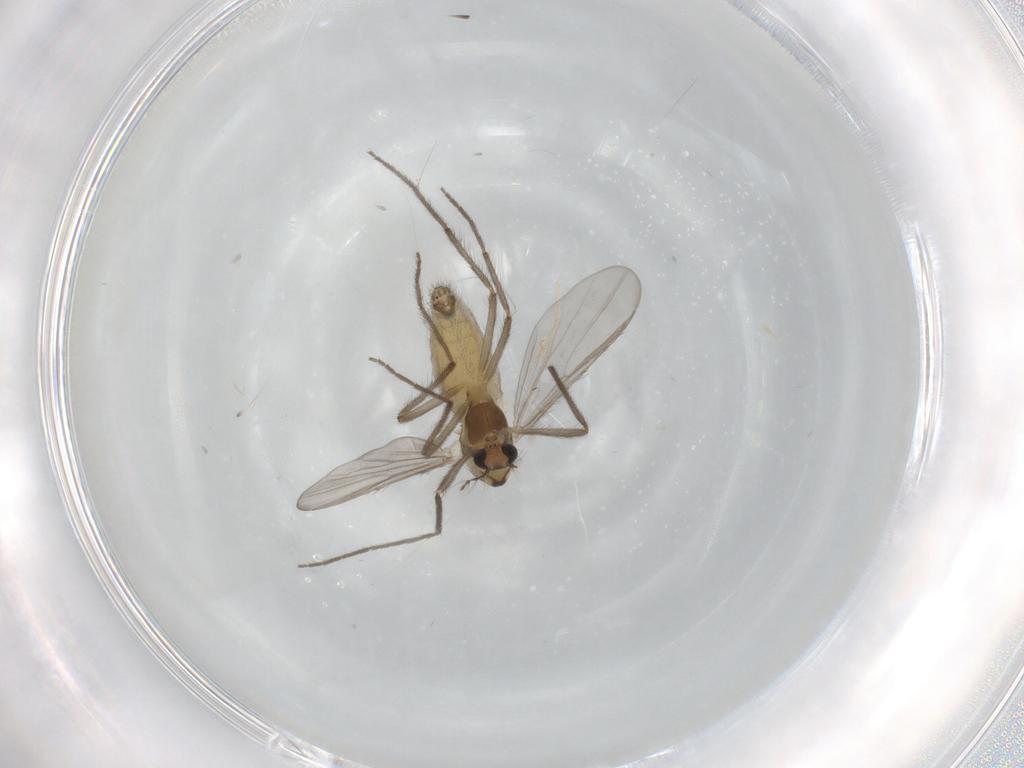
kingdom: Animalia
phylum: Arthropoda
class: Insecta
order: Diptera
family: Chironomidae
